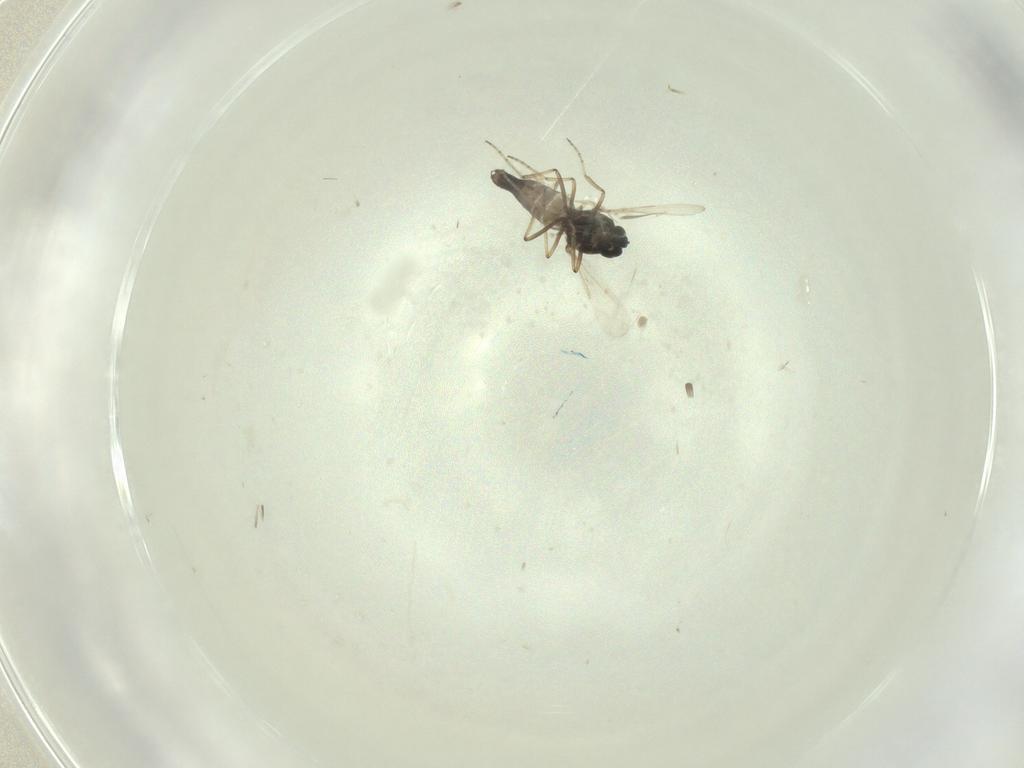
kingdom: Animalia
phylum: Arthropoda
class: Insecta
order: Diptera
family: Ceratopogonidae
